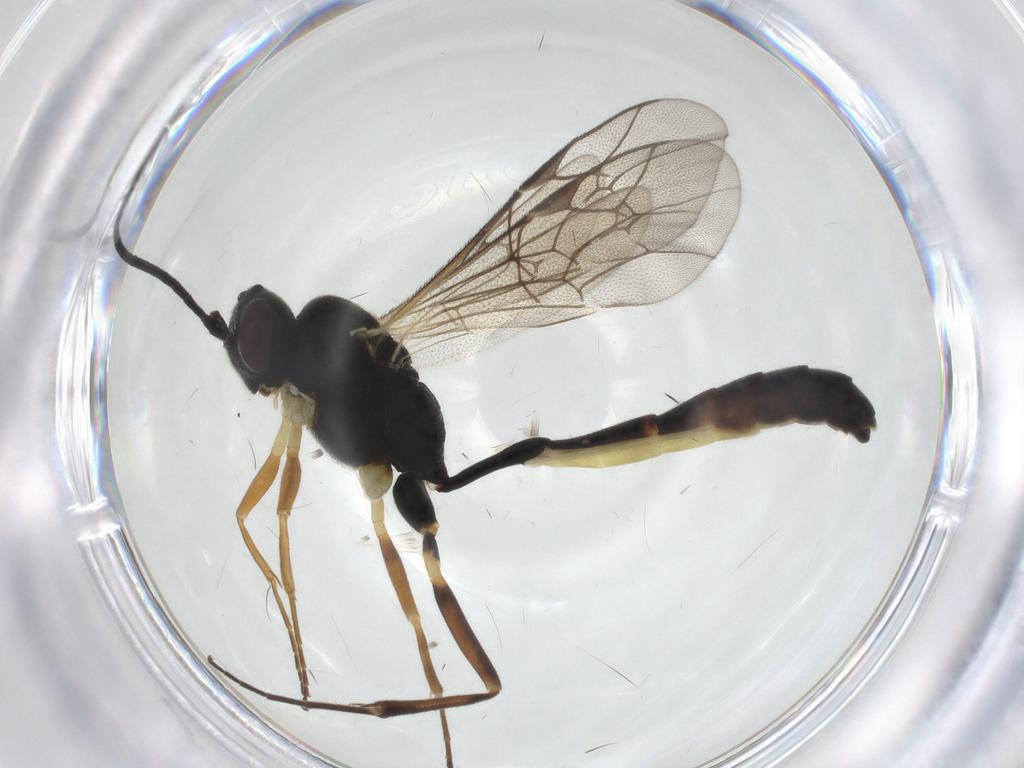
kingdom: Animalia
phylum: Arthropoda
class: Insecta
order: Hymenoptera
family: Ichneumonidae
